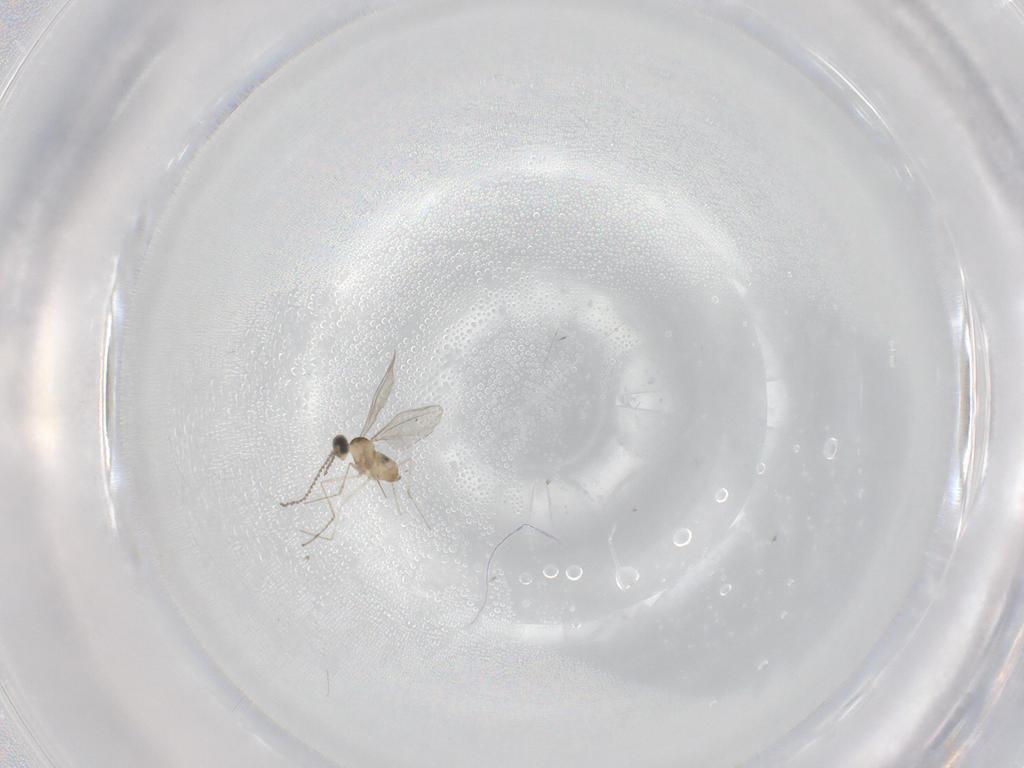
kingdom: Animalia
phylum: Arthropoda
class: Insecta
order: Diptera
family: Cecidomyiidae
